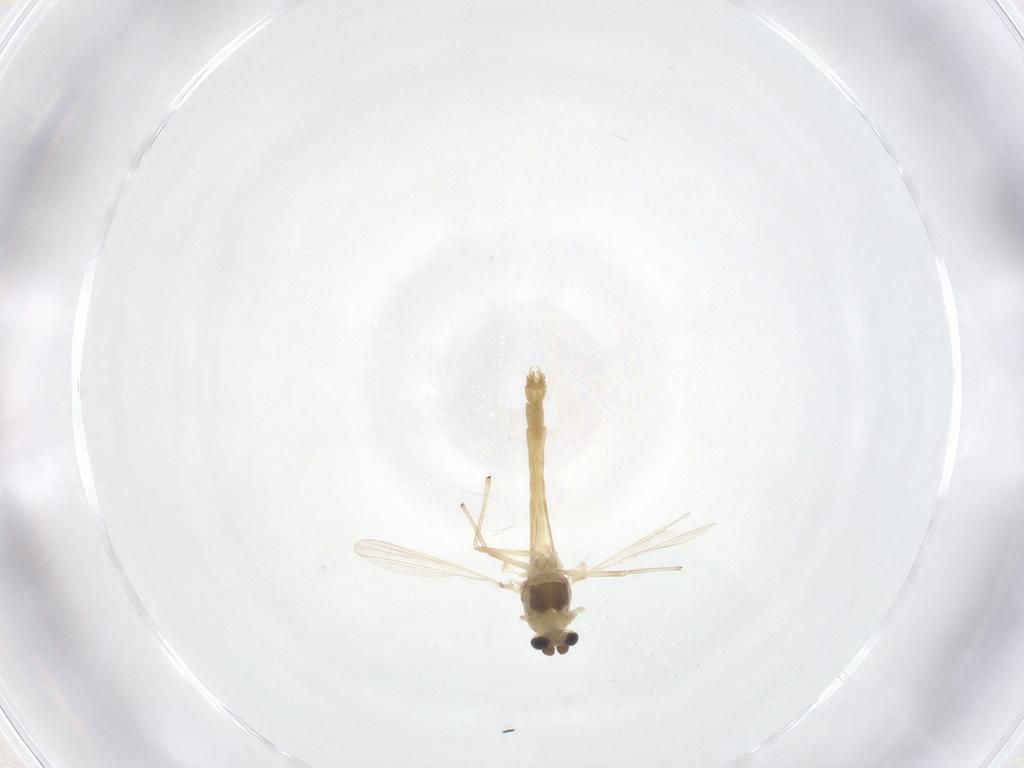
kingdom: Animalia
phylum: Arthropoda
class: Insecta
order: Diptera
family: Chironomidae
